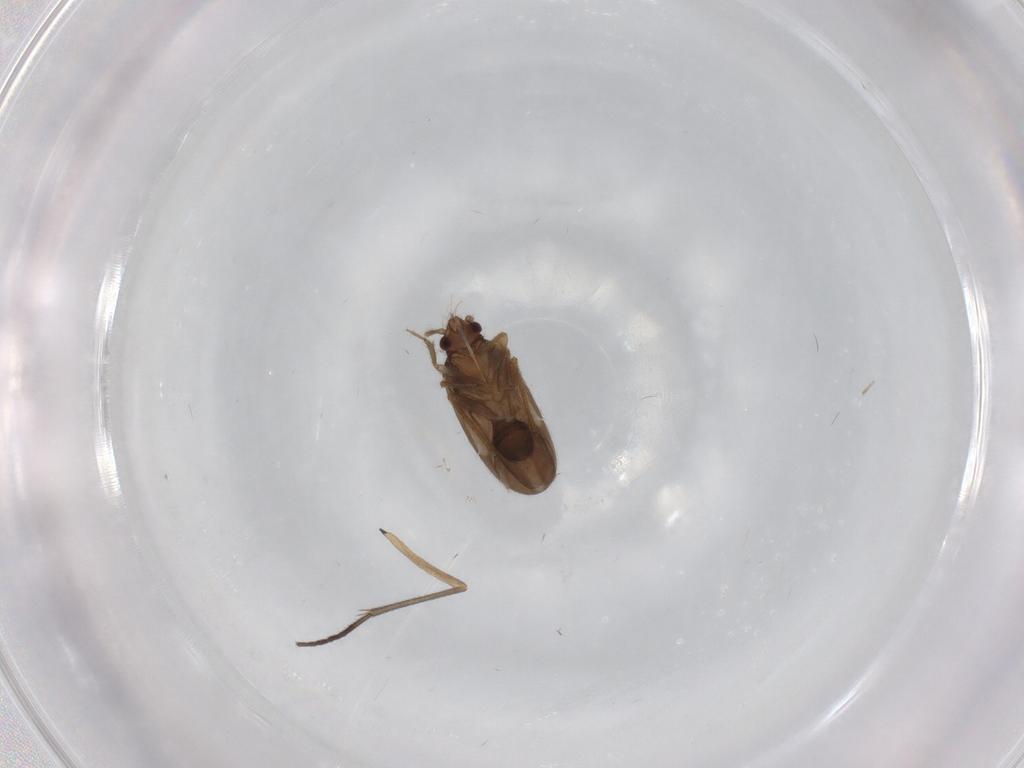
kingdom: Animalia
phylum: Arthropoda
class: Insecta
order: Hemiptera
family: Ceratocombidae
